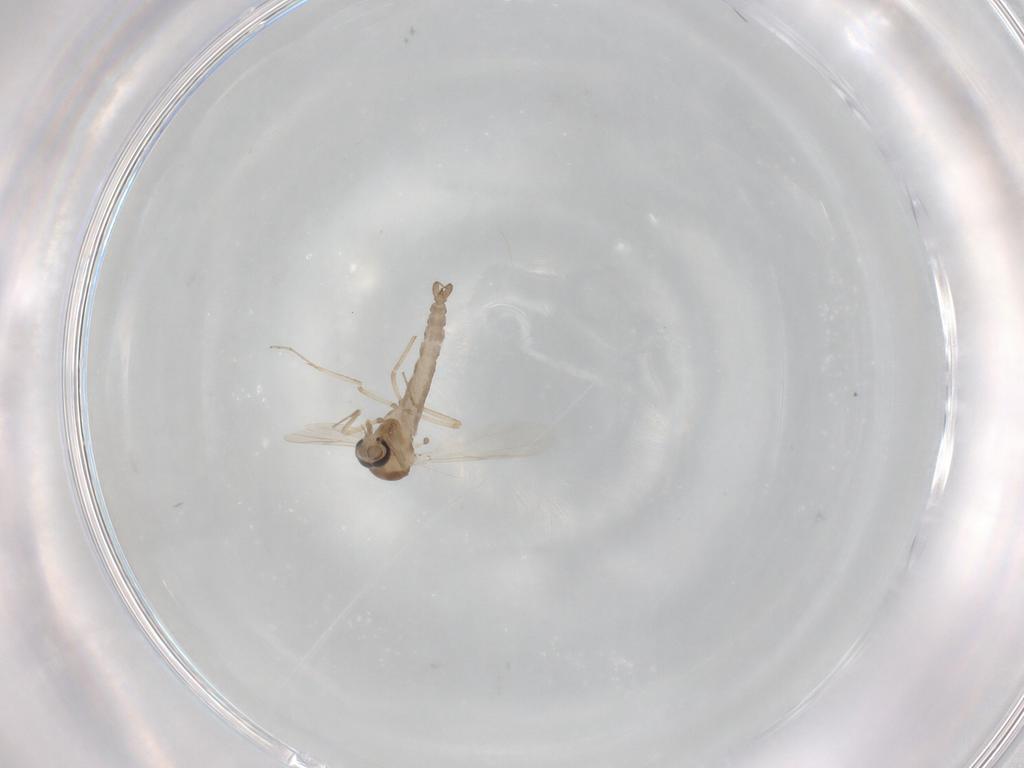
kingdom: Animalia
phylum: Arthropoda
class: Insecta
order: Diptera
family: Ceratopogonidae
